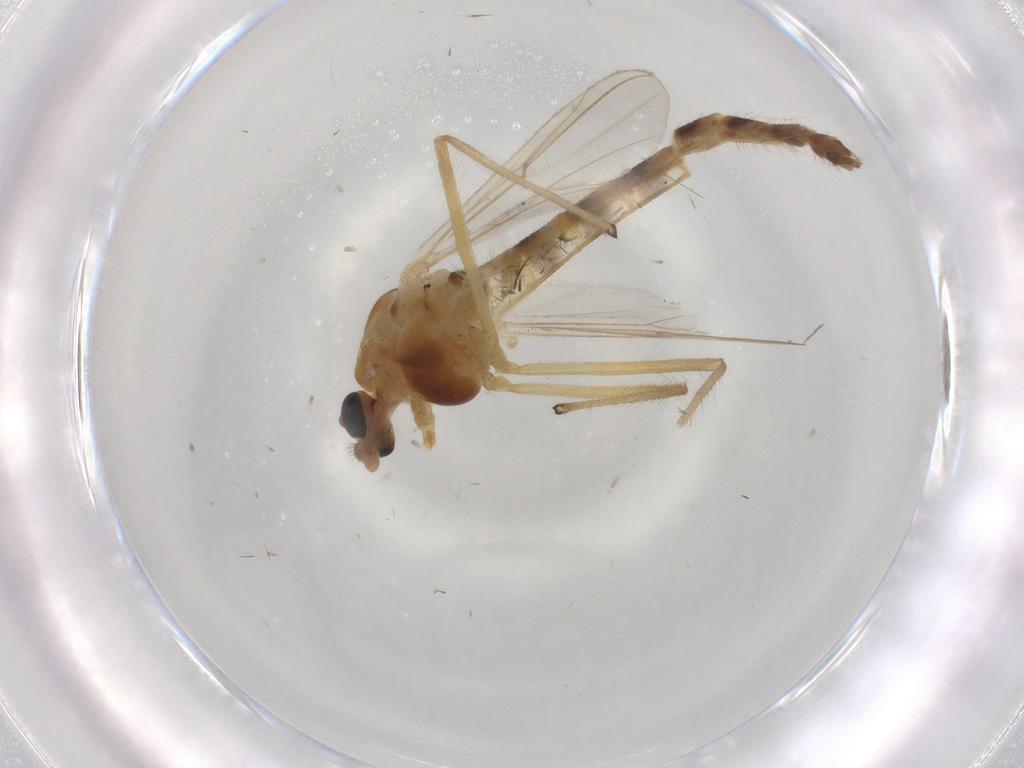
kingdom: Animalia
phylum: Arthropoda
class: Insecta
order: Diptera
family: Chironomidae
